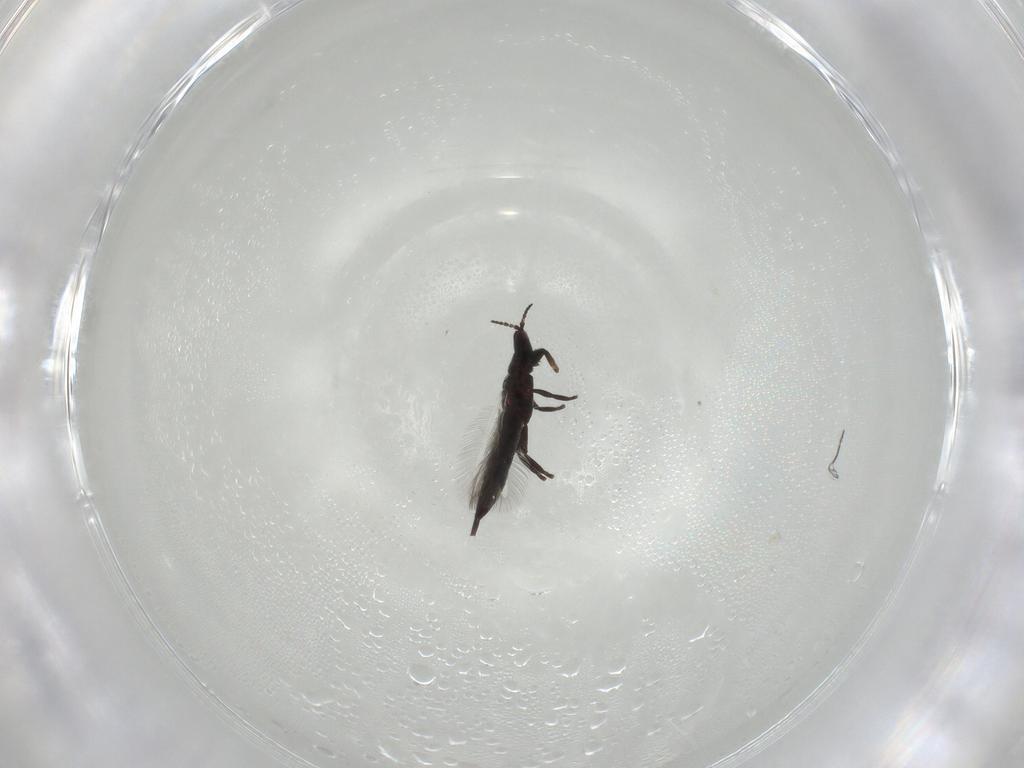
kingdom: Animalia
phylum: Arthropoda
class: Insecta
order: Thysanoptera
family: Phlaeothripidae
